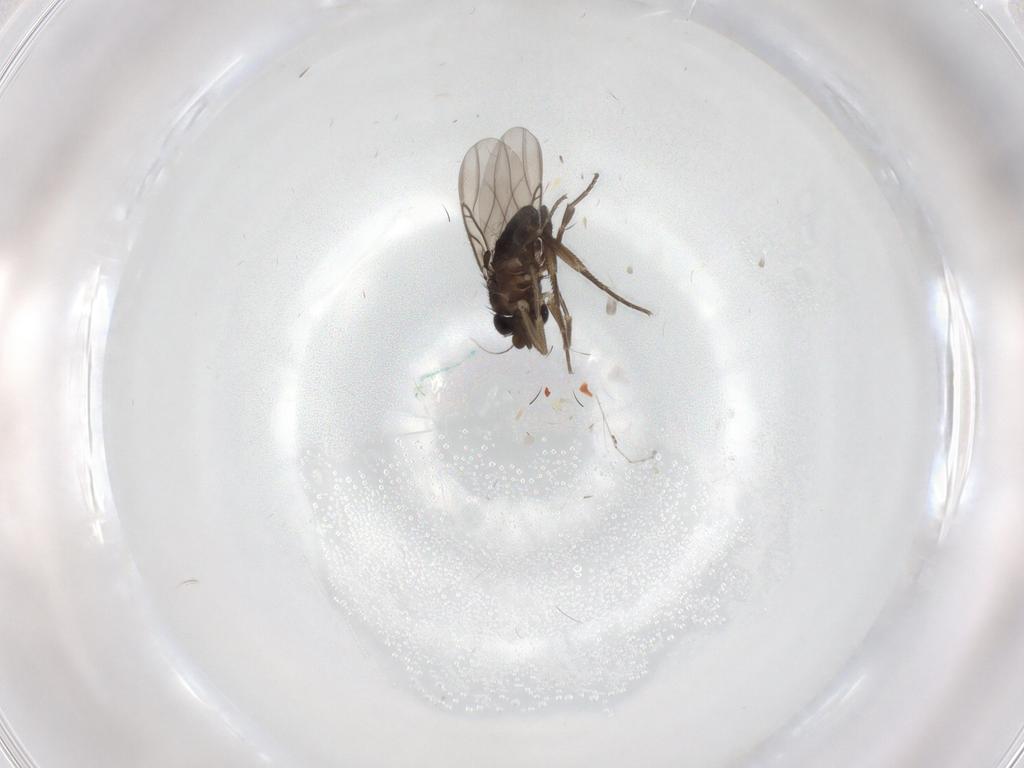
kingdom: Animalia
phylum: Arthropoda
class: Insecta
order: Diptera
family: Phoridae
